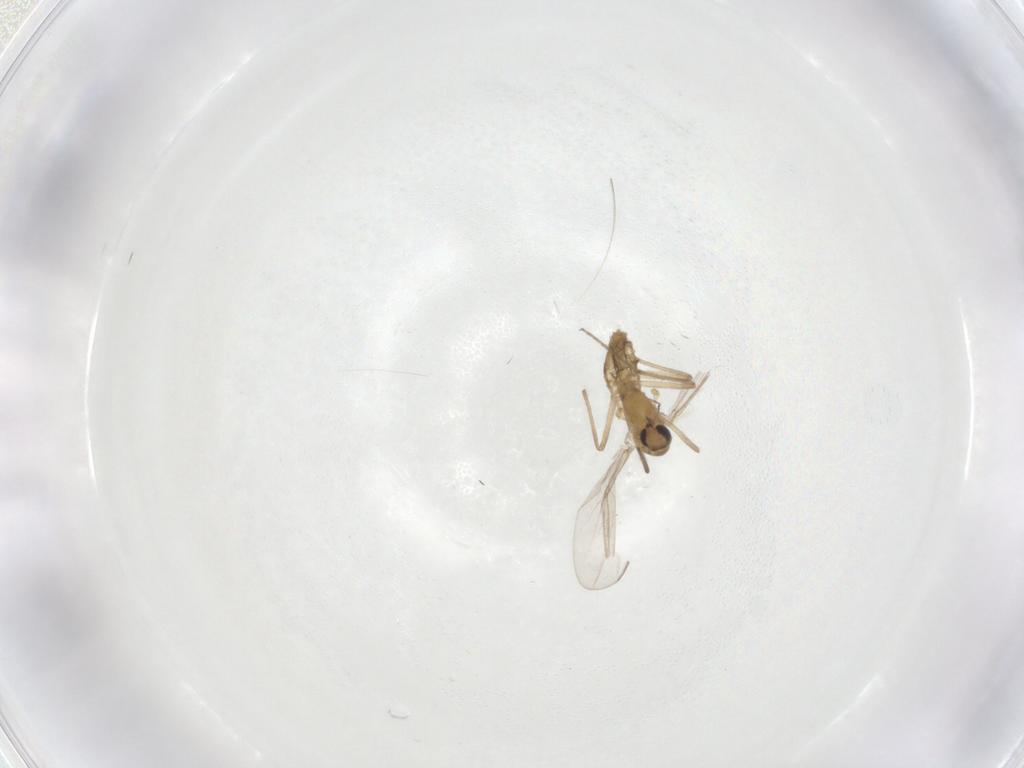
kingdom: Animalia
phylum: Arthropoda
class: Insecta
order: Diptera
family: Chironomidae
